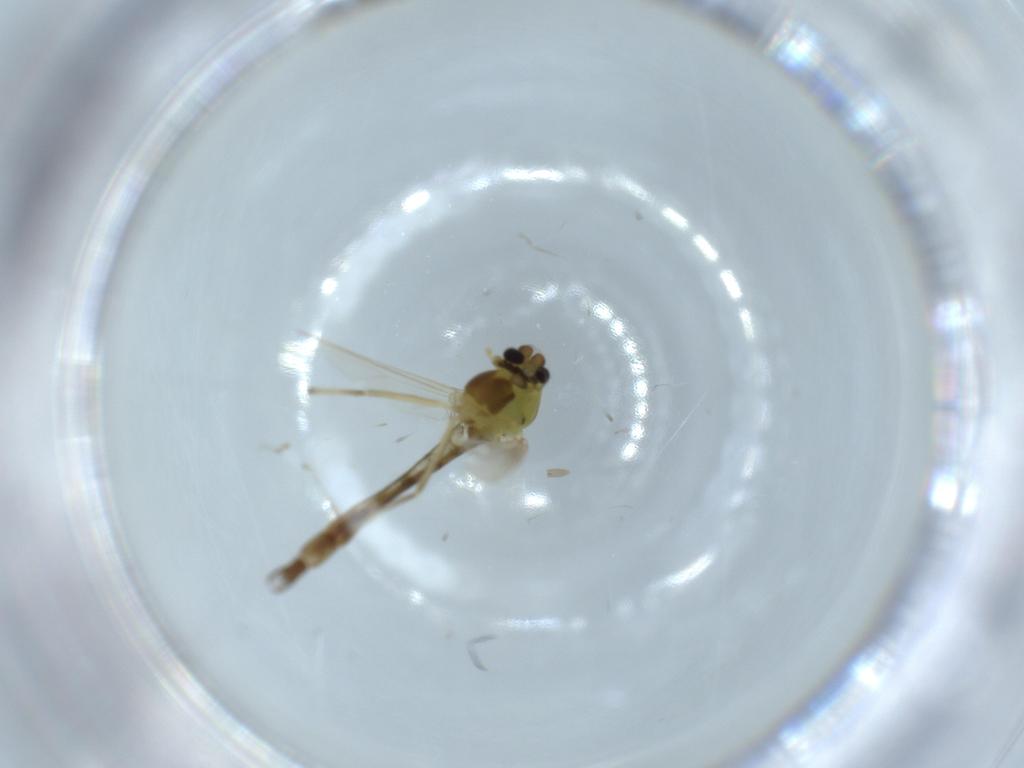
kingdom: Animalia
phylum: Arthropoda
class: Insecta
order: Diptera
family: Chironomidae
